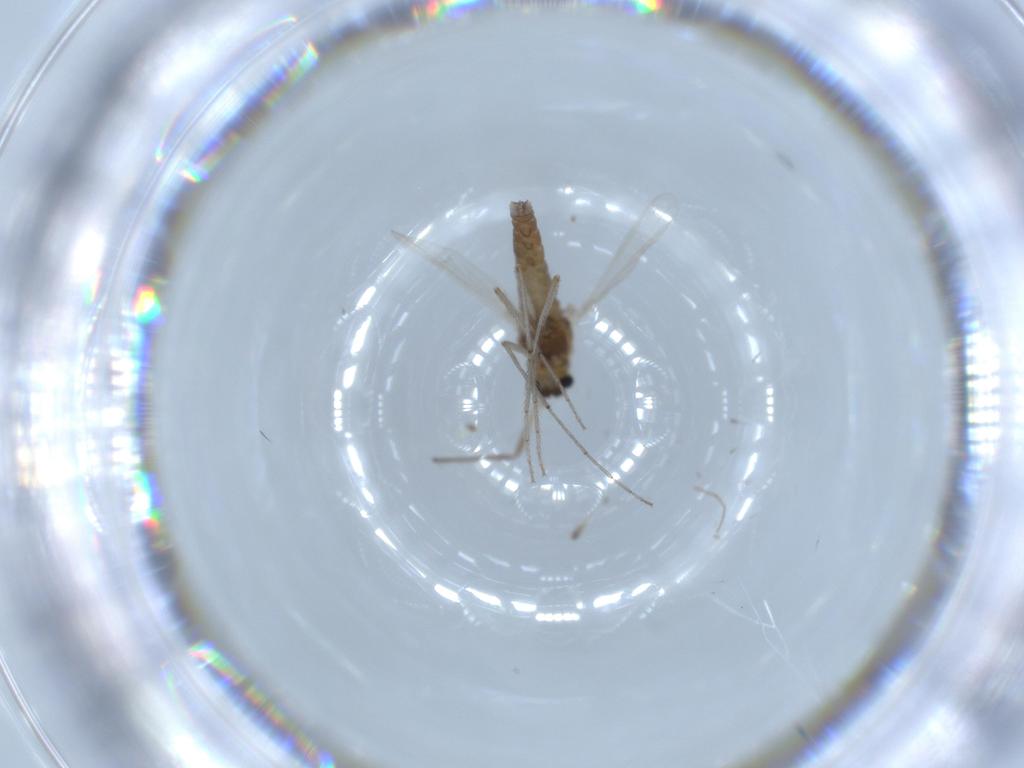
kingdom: Animalia
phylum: Arthropoda
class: Insecta
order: Diptera
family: Chironomidae
